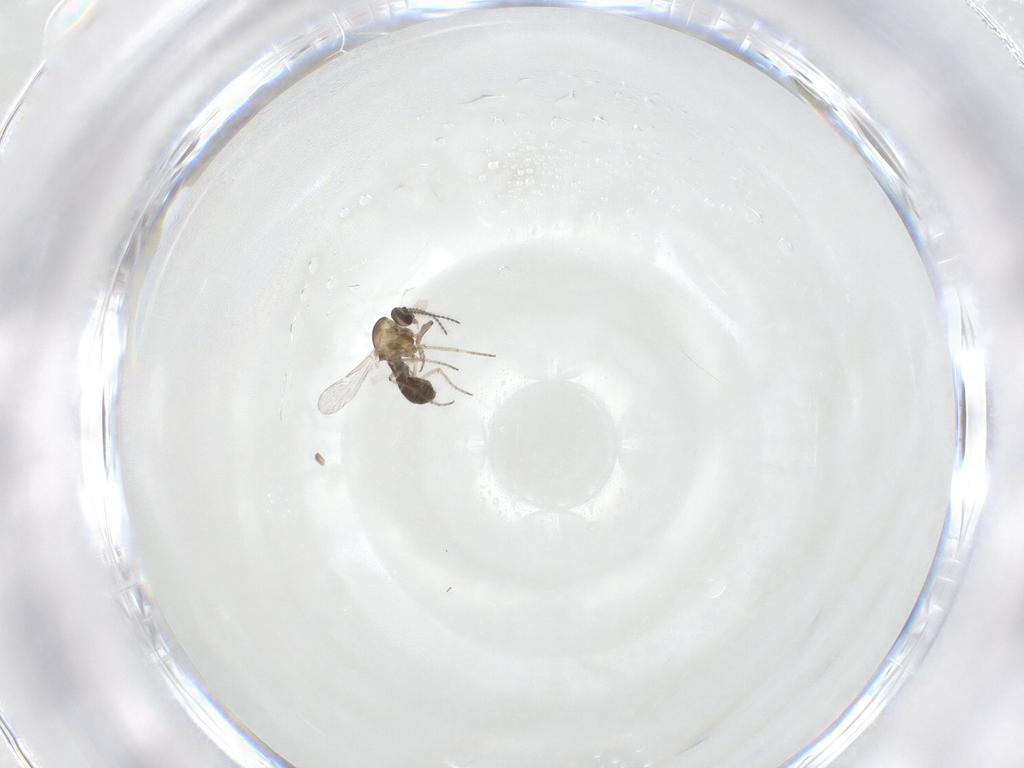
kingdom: Animalia
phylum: Arthropoda
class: Insecta
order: Diptera
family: Ceratopogonidae
